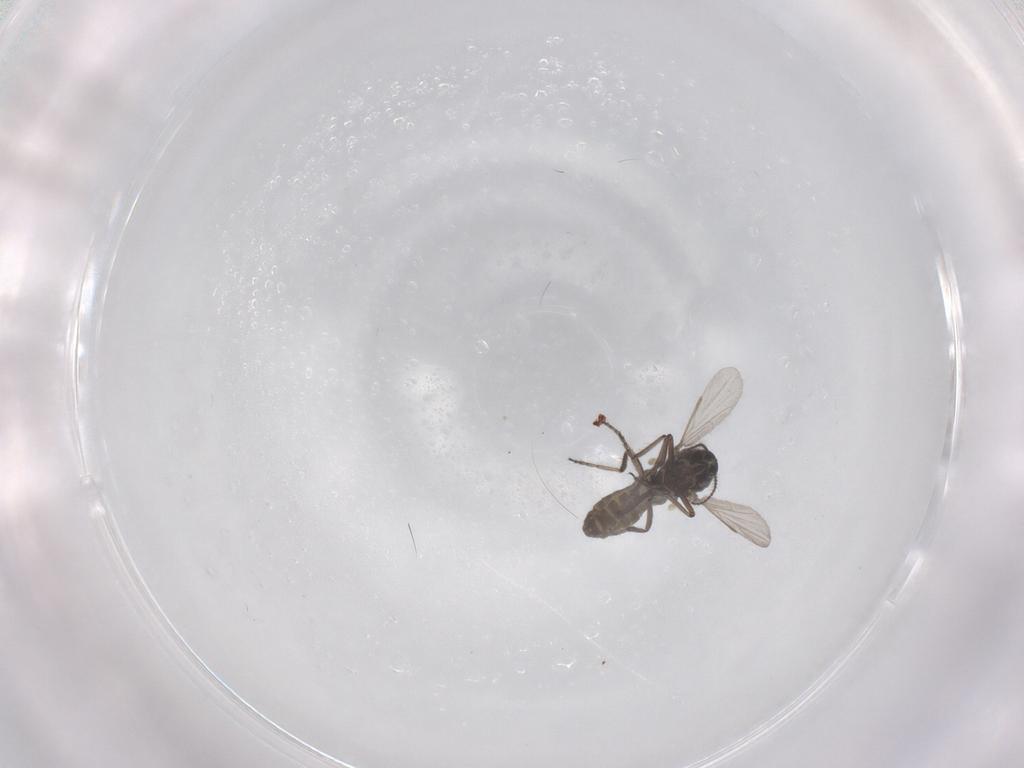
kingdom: Animalia
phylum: Arthropoda
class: Insecta
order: Diptera
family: Ceratopogonidae
